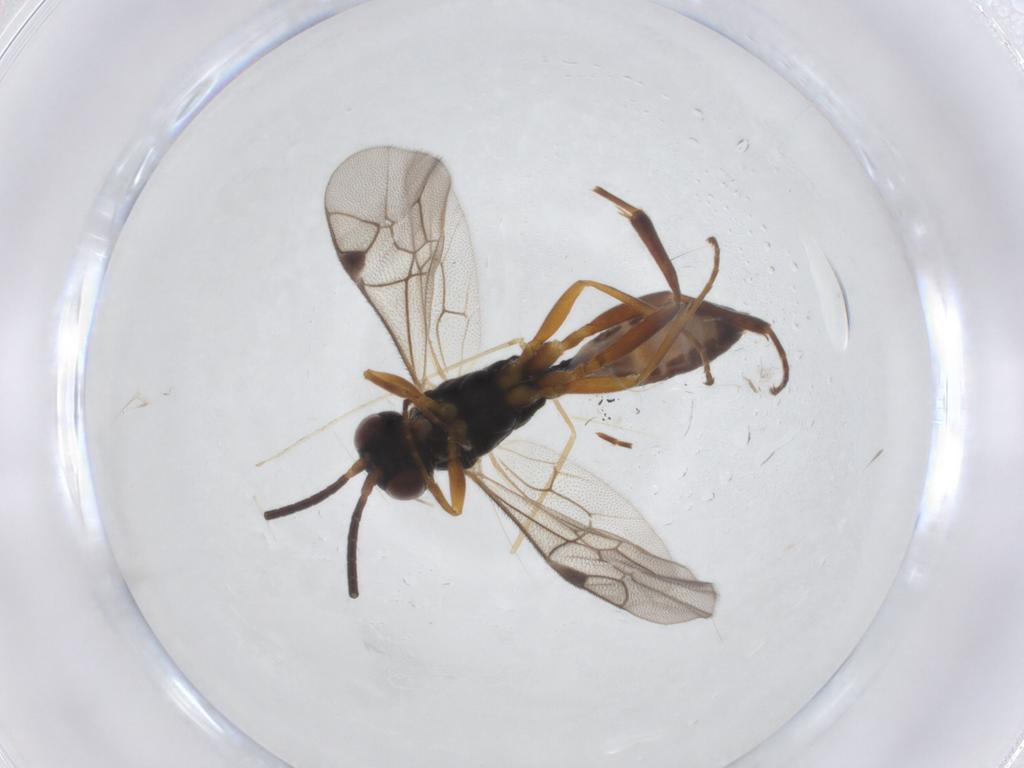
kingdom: Animalia
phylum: Arthropoda
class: Insecta
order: Hymenoptera
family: Ichneumonidae
